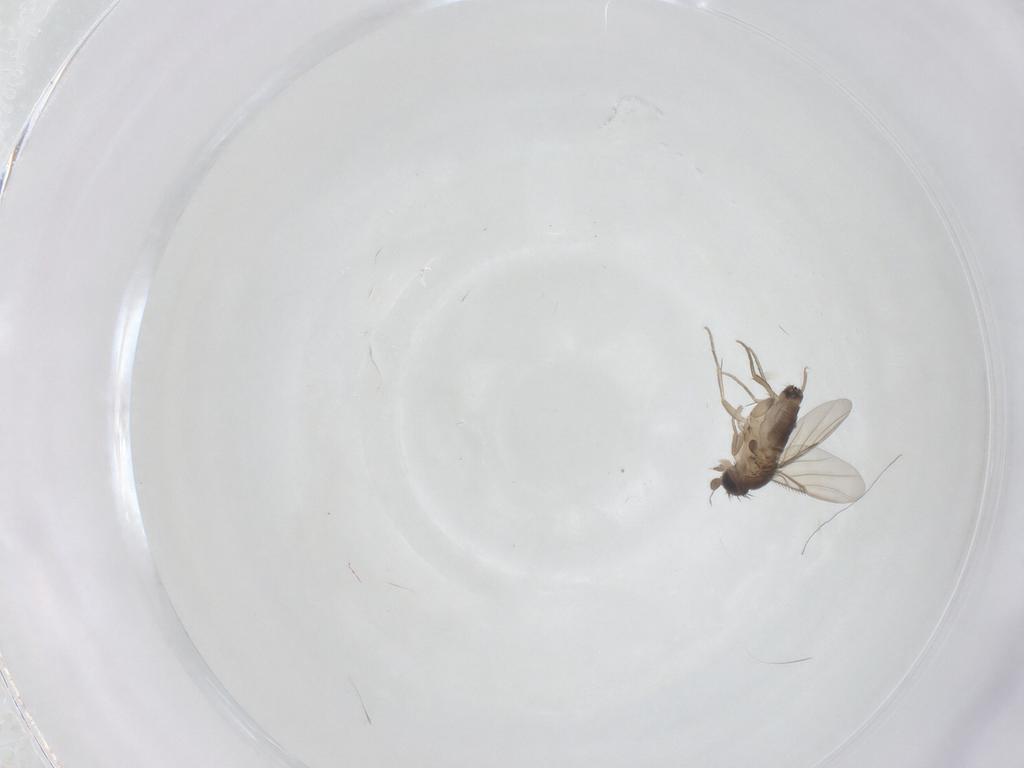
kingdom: Animalia
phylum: Arthropoda
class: Insecta
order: Diptera
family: Phoridae
